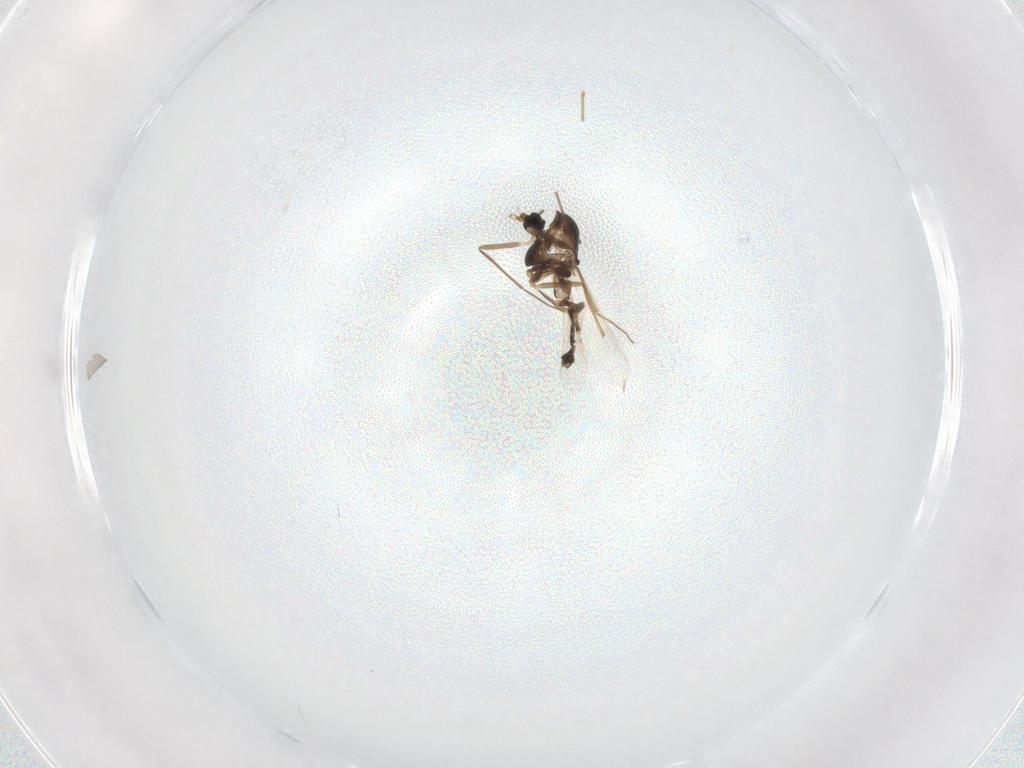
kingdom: Animalia
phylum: Arthropoda
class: Insecta
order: Diptera
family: Chironomidae
